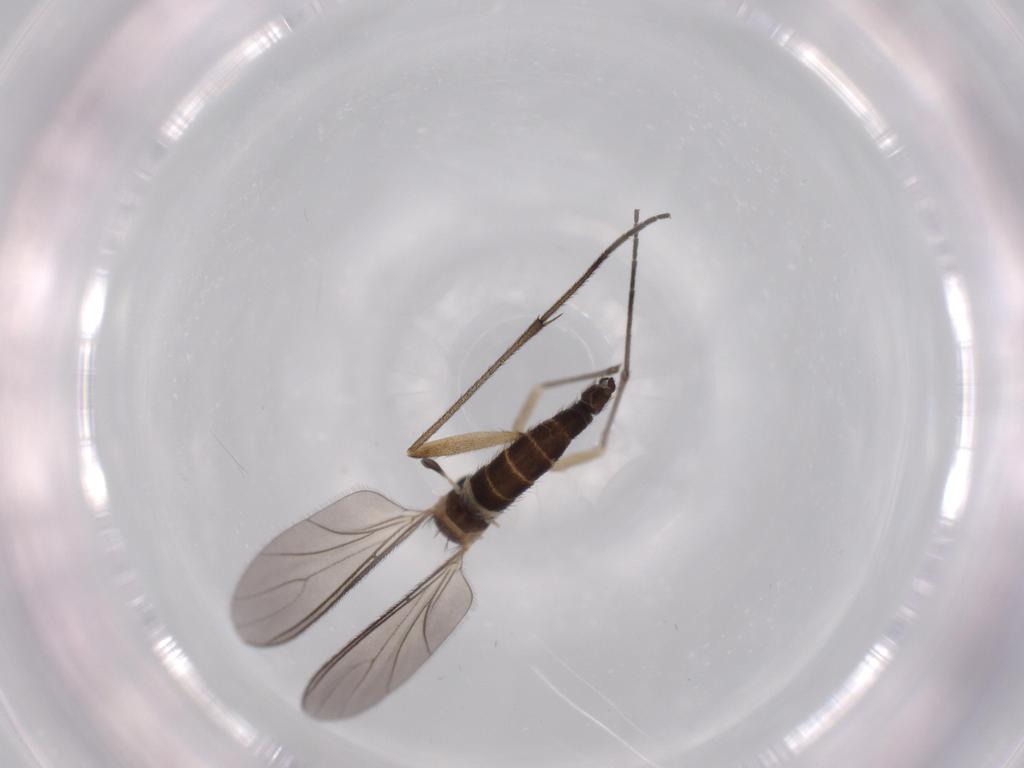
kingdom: Animalia
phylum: Arthropoda
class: Insecta
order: Diptera
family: Sciaridae
